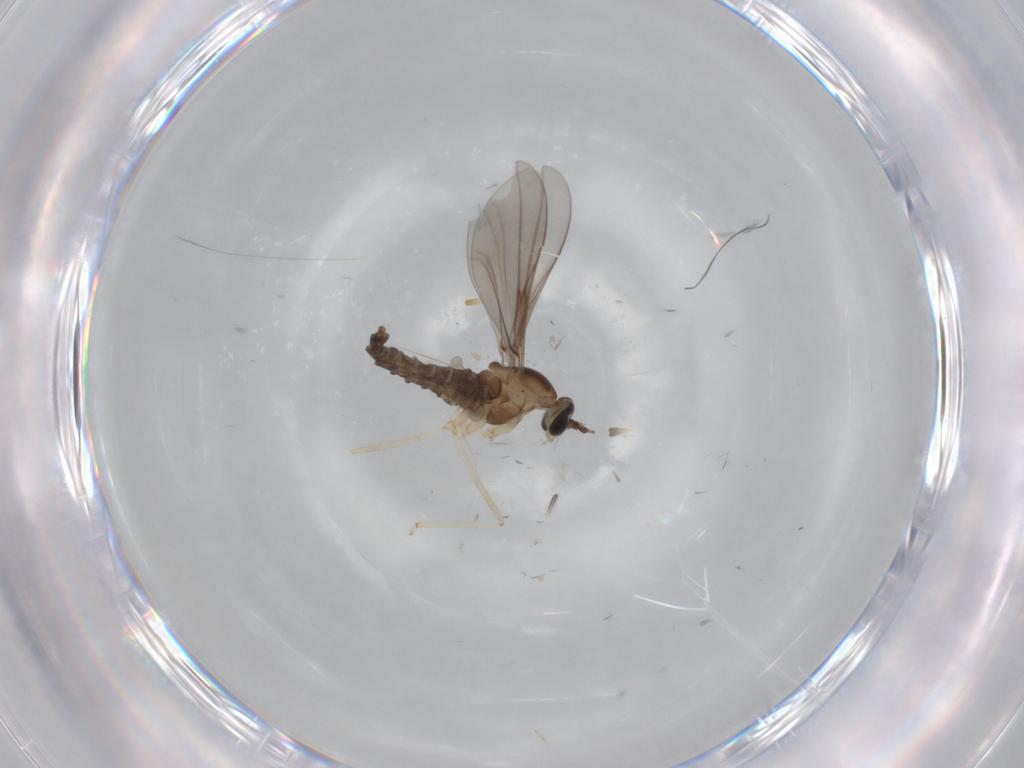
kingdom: Animalia
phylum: Arthropoda
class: Insecta
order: Diptera
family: Cecidomyiidae
